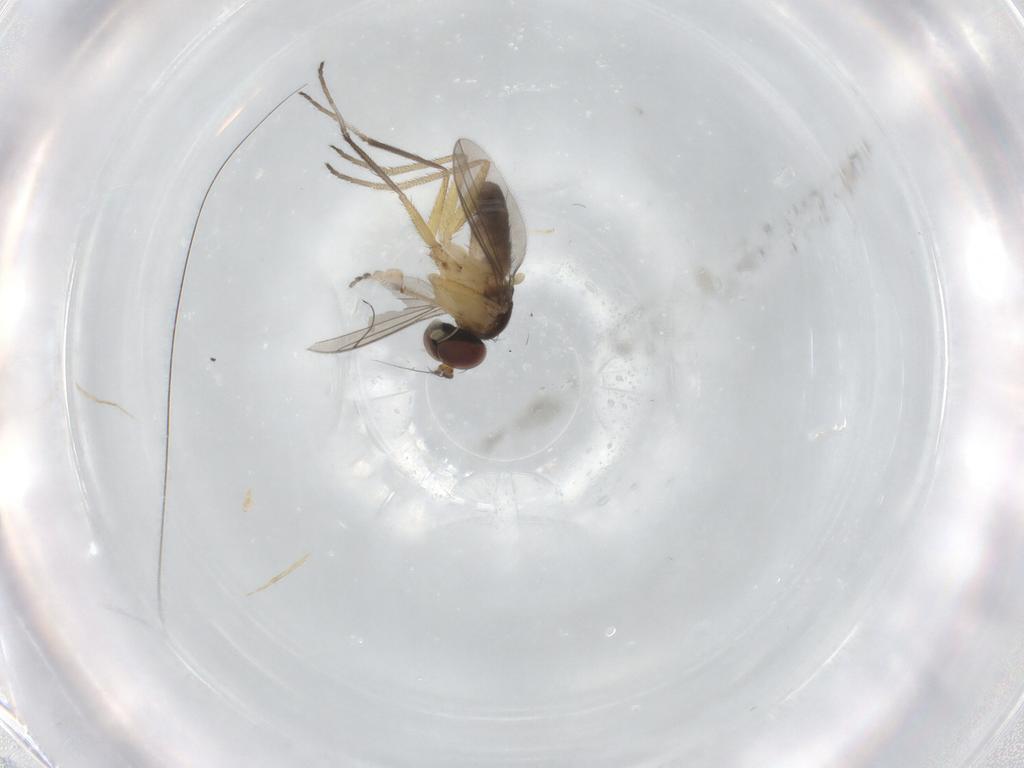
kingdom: Animalia
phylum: Arthropoda
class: Insecta
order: Diptera
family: Dolichopodidae
